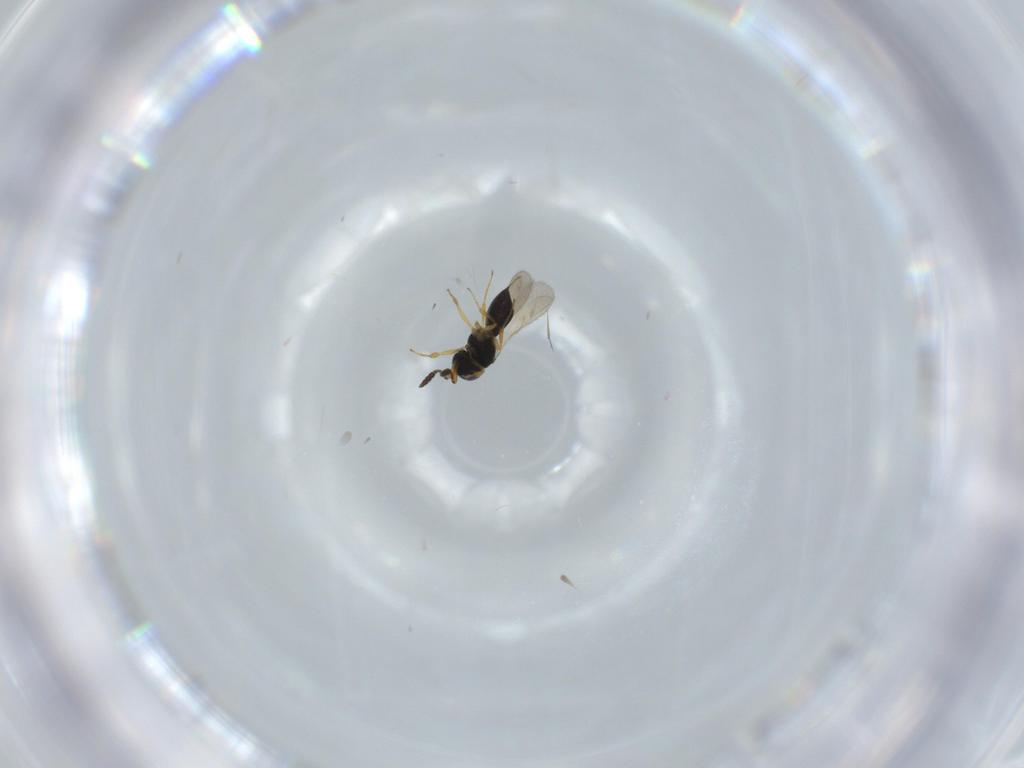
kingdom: Animalia
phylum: Arthropoda
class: Insecta
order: Hymenoptera
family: Scelionidae
